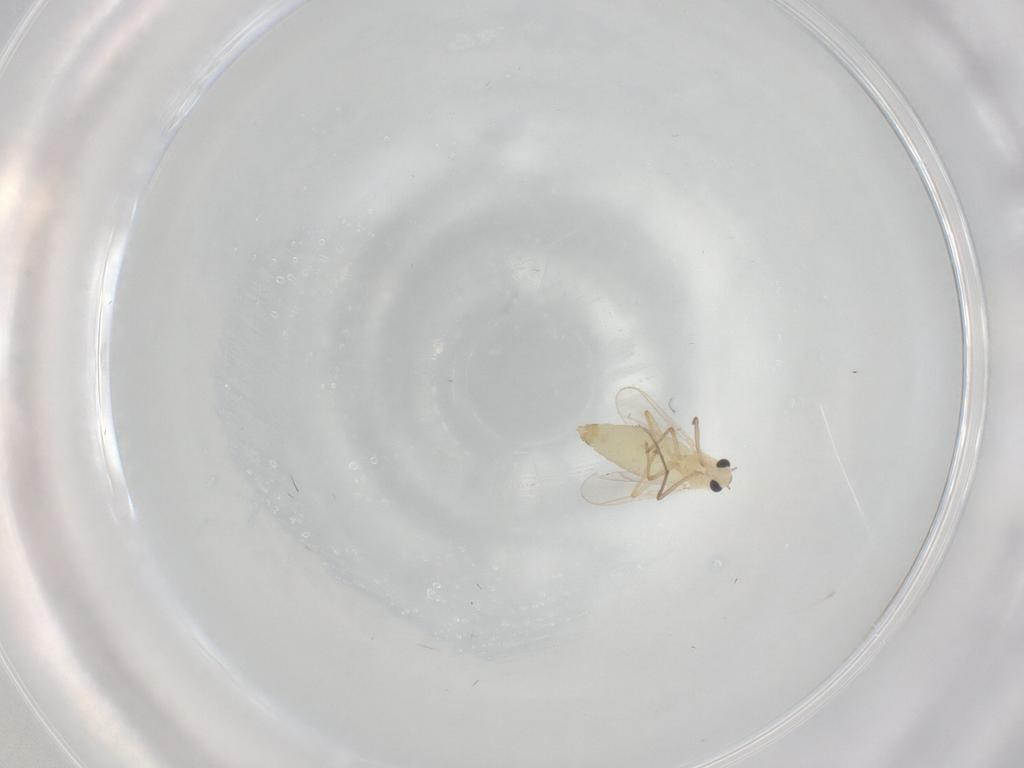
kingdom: Animalia
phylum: Arthropoda
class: Insecta
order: Diptera
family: Chironomidae
